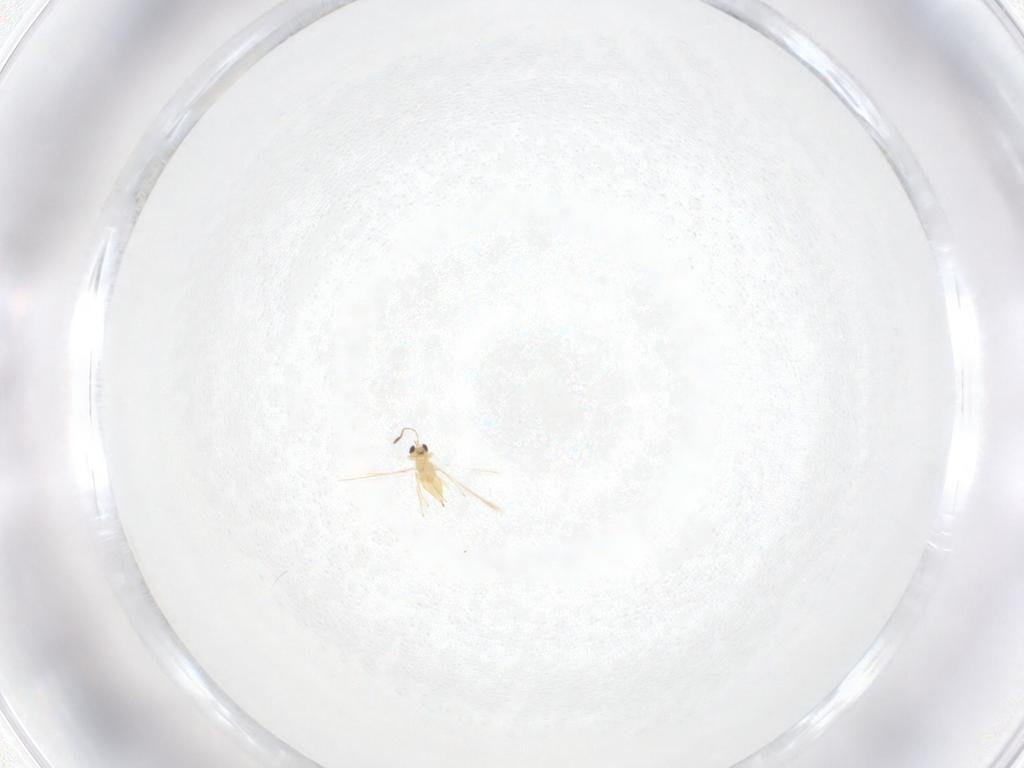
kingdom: Animalia
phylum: Arthropoda
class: Insecta
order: Hymenoptera
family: Mymaridae
